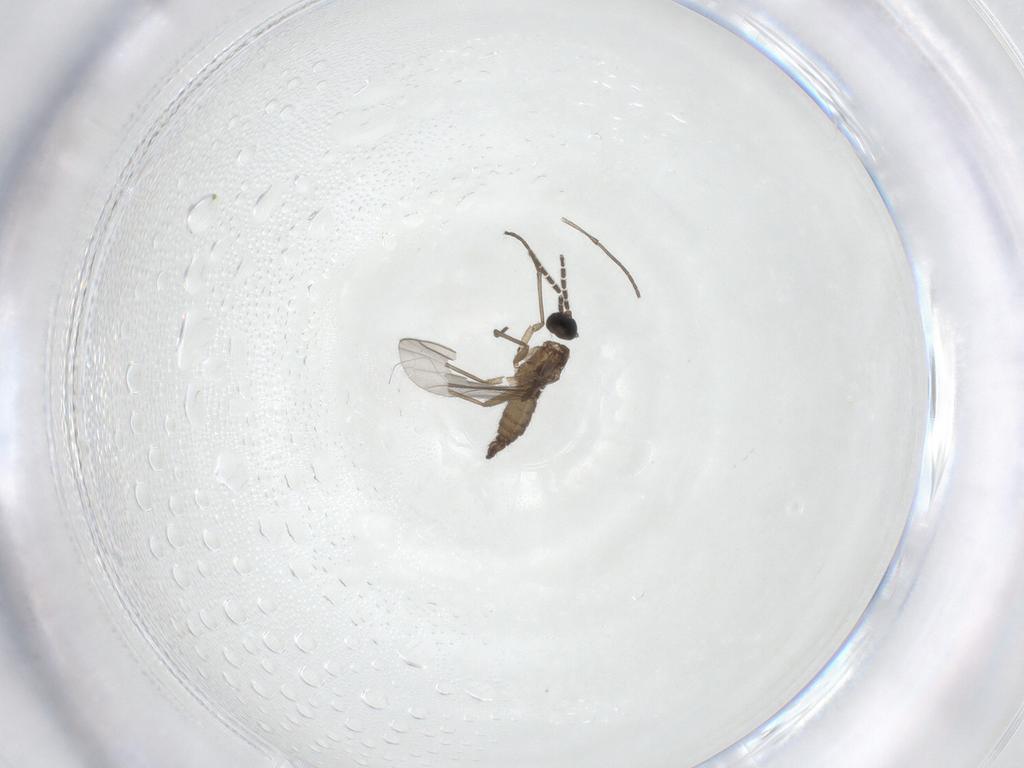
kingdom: Animalia
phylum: Arthropoda
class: Insecta
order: Diptera
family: Sciaridae
